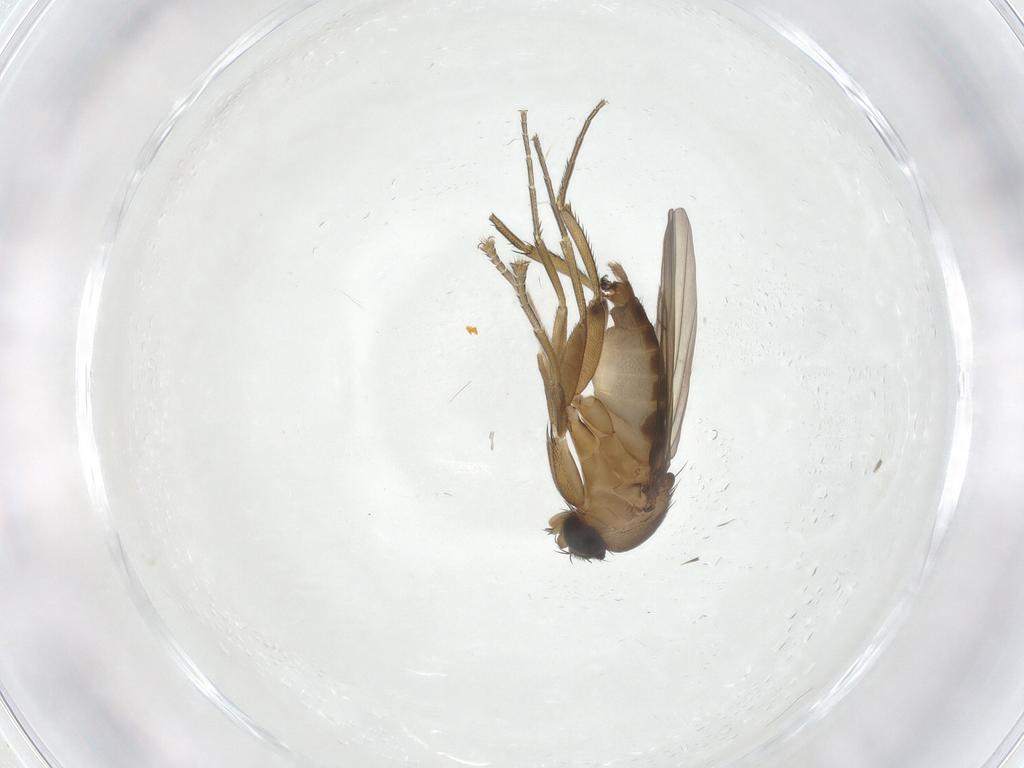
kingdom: Animalia
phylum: Arthropoda
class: Insecta
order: Diptera
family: Phoridae
